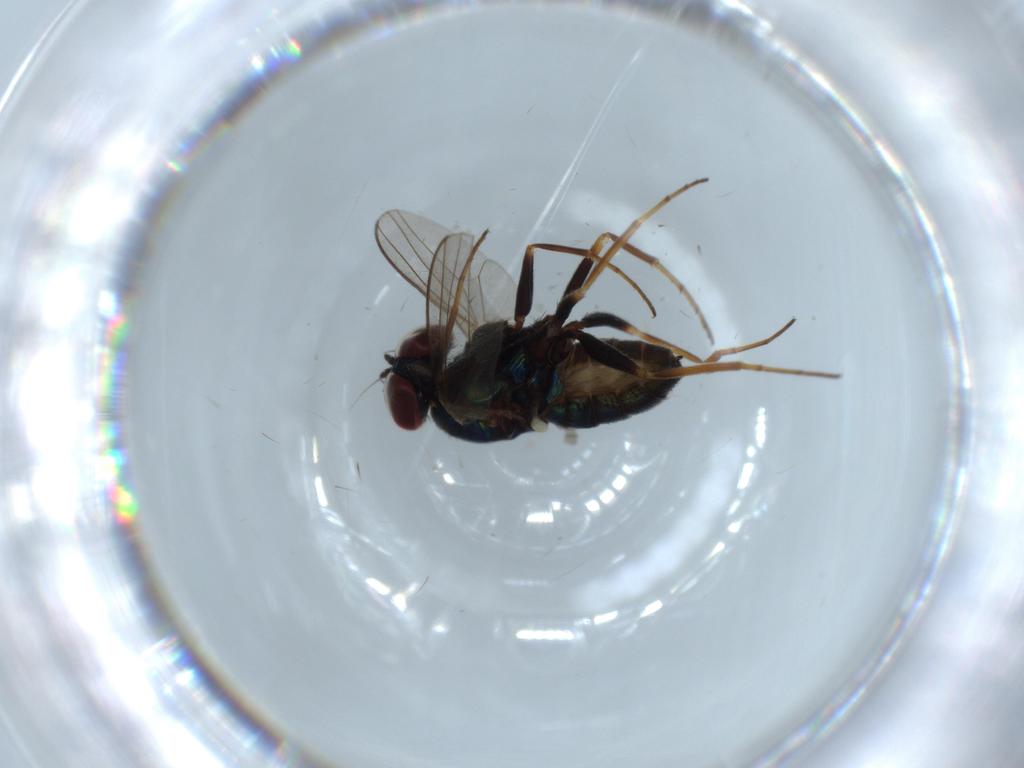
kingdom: Animalia
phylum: Arthropoda
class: Insecta
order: Diptera
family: Dolichopodidae
